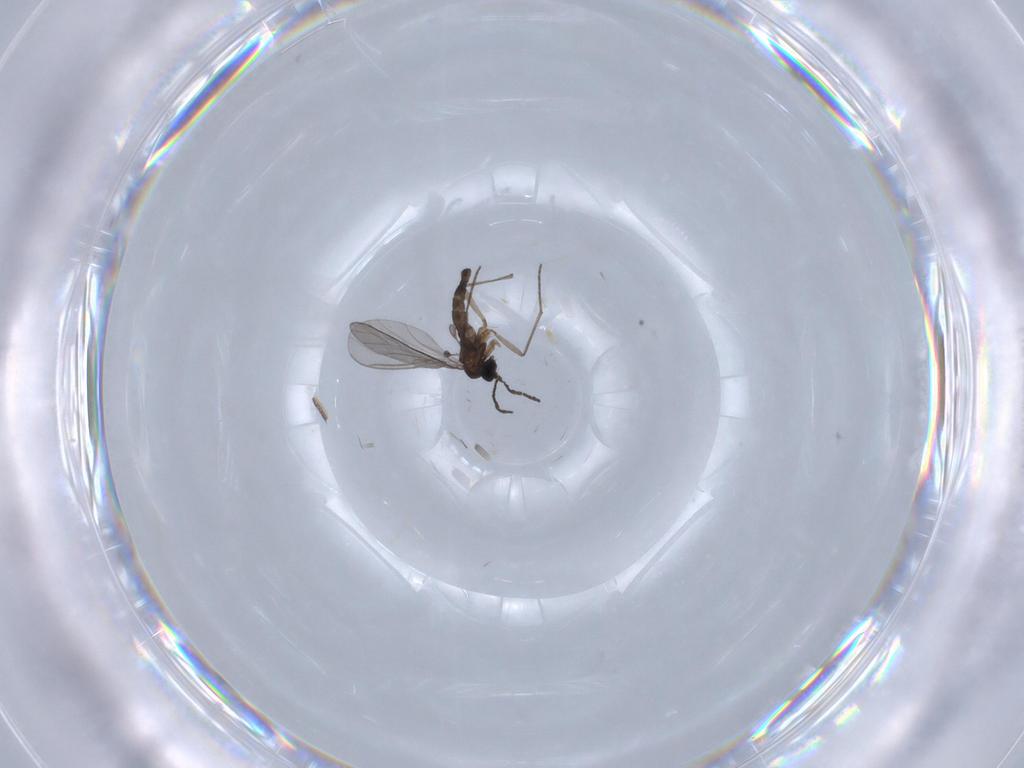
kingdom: Animalia
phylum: Arthropoda
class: Insecta
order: Diptera
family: Sciaridae
